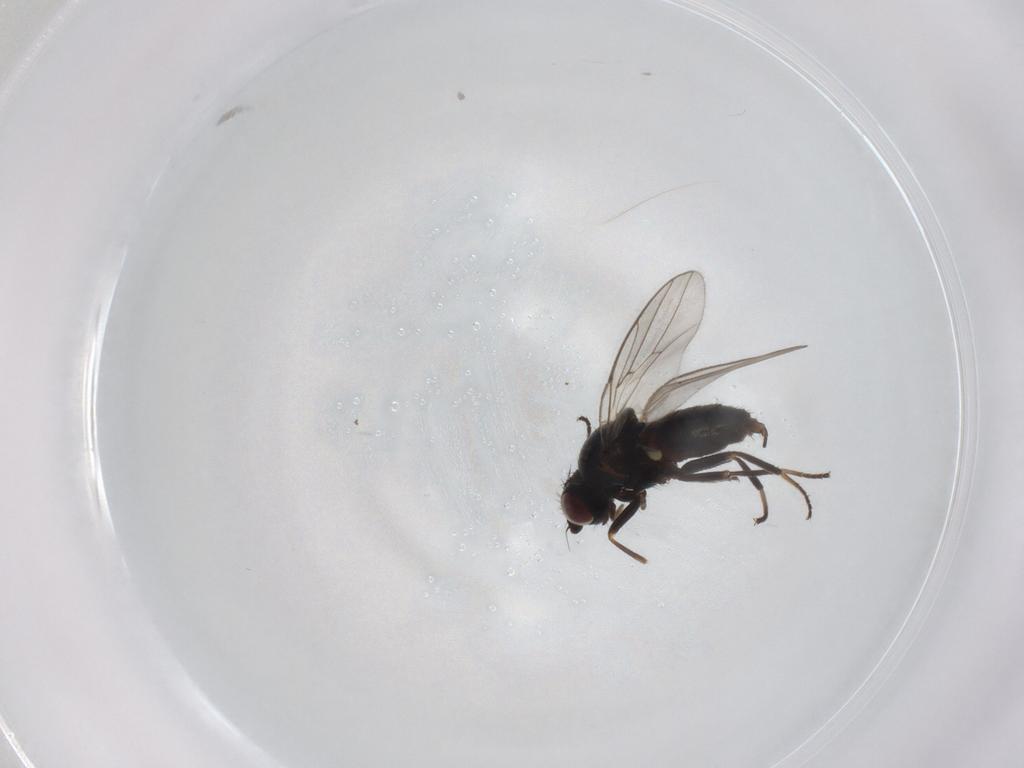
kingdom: Animalia
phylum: Arthropoda
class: Insecta
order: Diptera
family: Chloropidae
